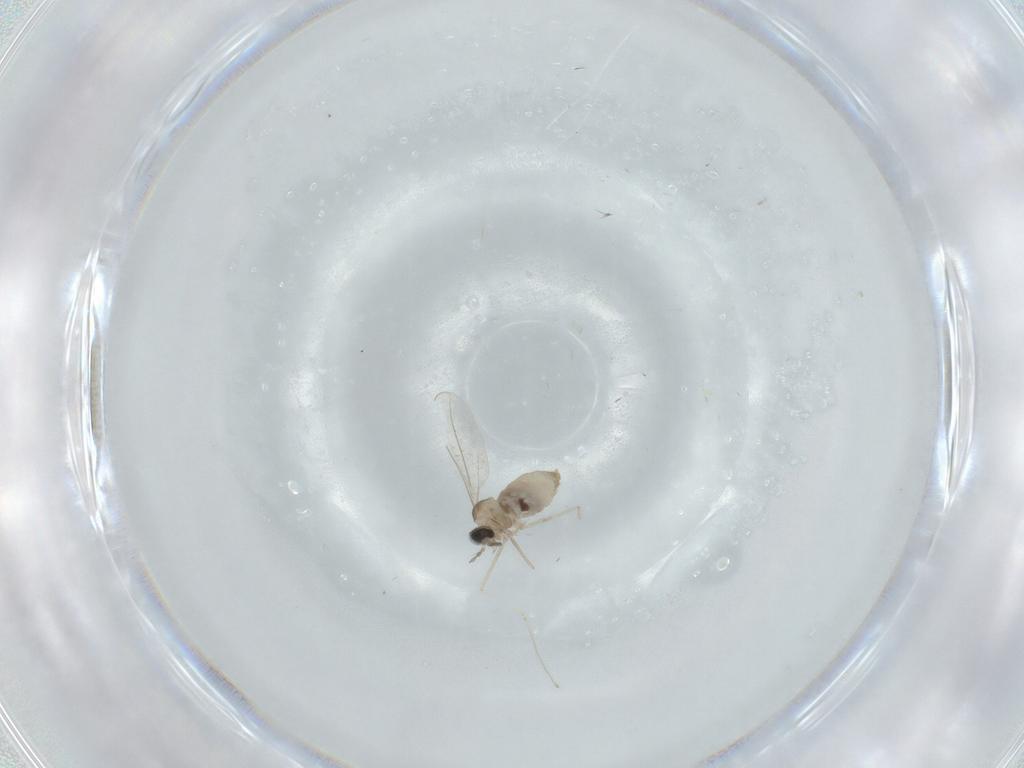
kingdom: Animalia
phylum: Arthropoda
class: Insecta
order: Diptera
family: Cecidomyiidae
